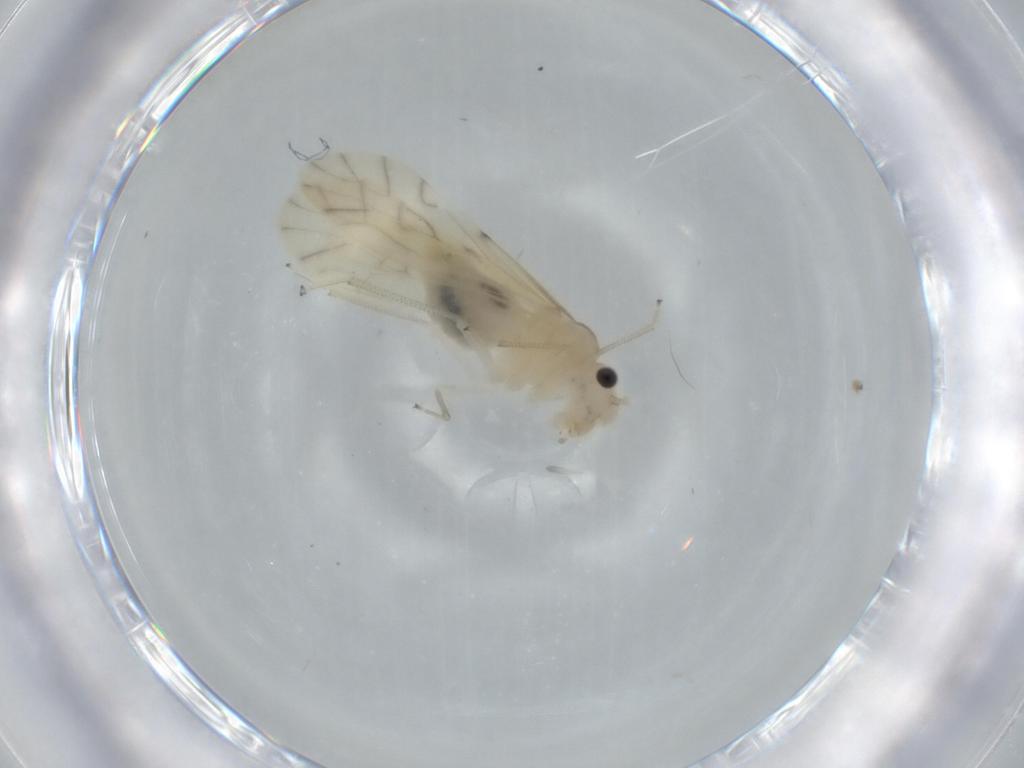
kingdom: Animalia
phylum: Arthropoda
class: Insecta
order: Psocodea
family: Caeciliusidae
